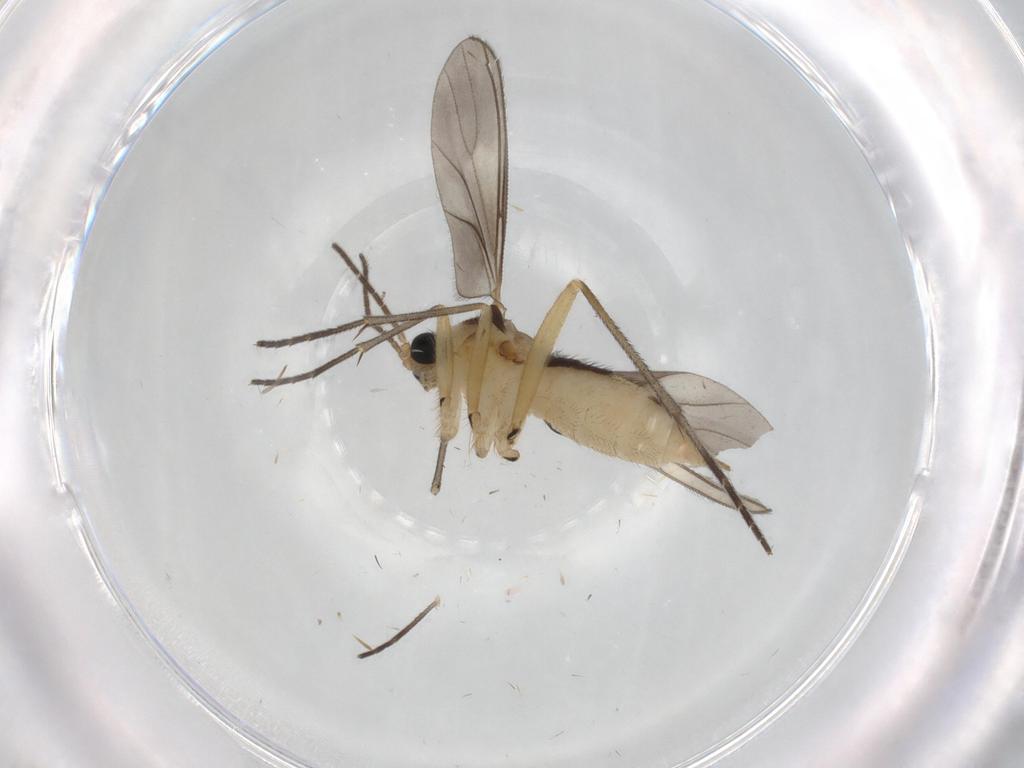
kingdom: Animalia
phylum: Arthropoda
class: Insecta
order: Diptera
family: Sciaridae
